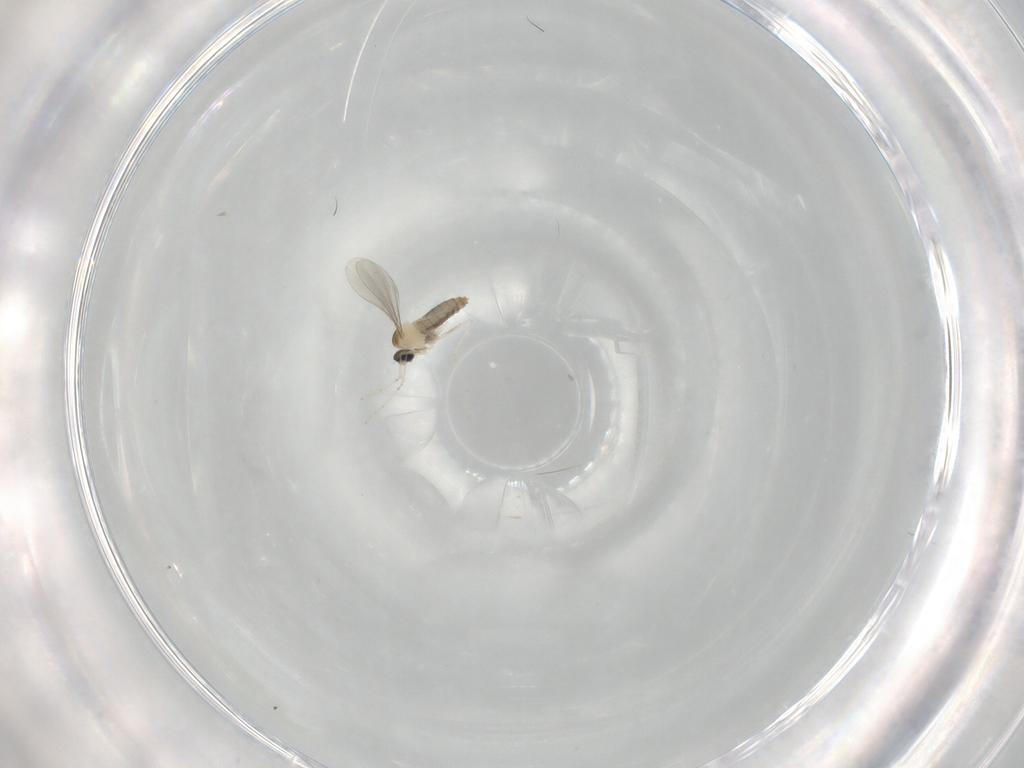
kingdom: Animalia
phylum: Arthropoda
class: Insecta
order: Diptera
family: Cecidomyiidae
